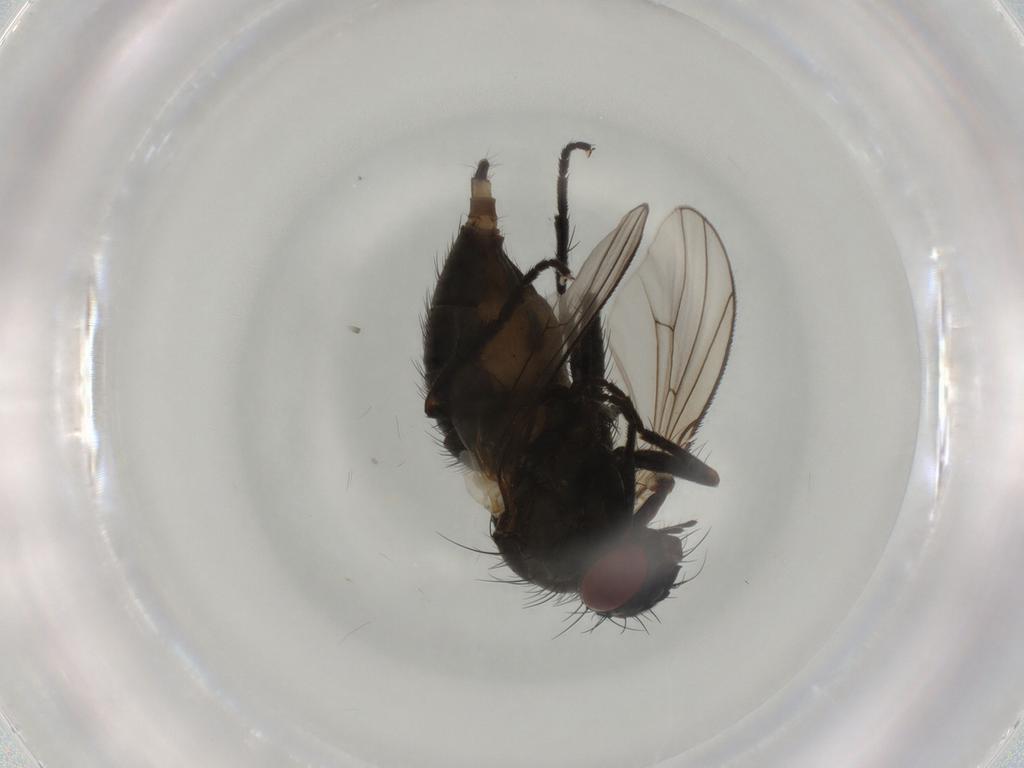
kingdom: Animalia
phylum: Arthropoda
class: Insecta
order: Diptera
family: Muscidae
